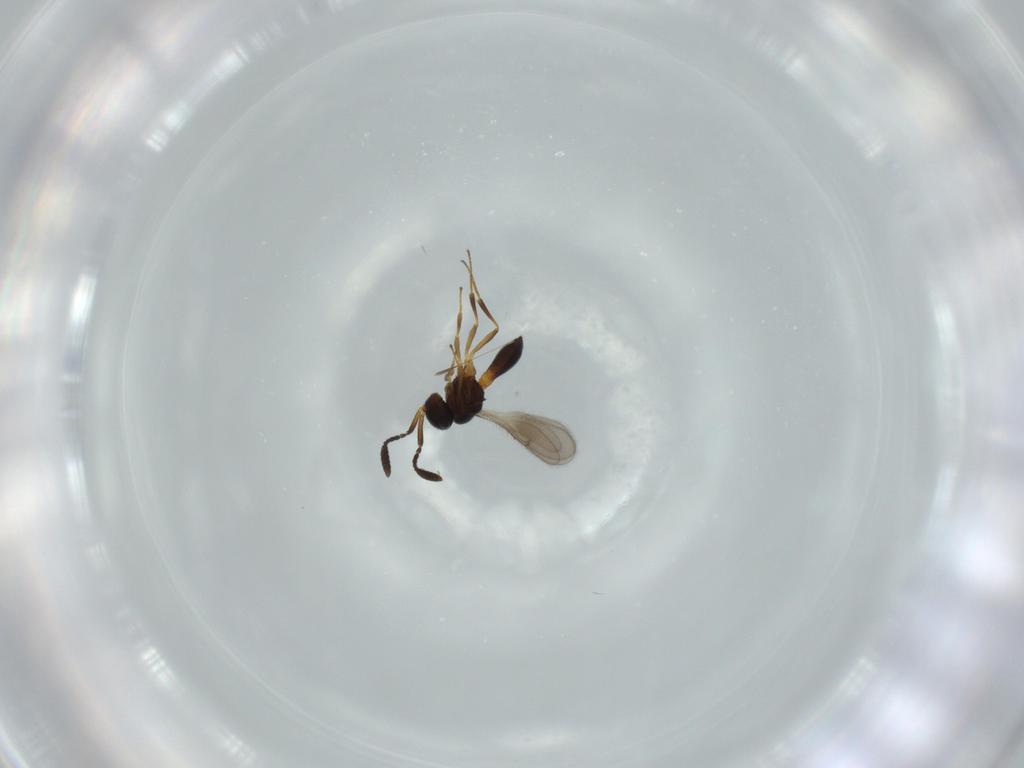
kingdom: Animalia
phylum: Arthropoda
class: Insecta
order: Hymenoptera
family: Scelionidae
